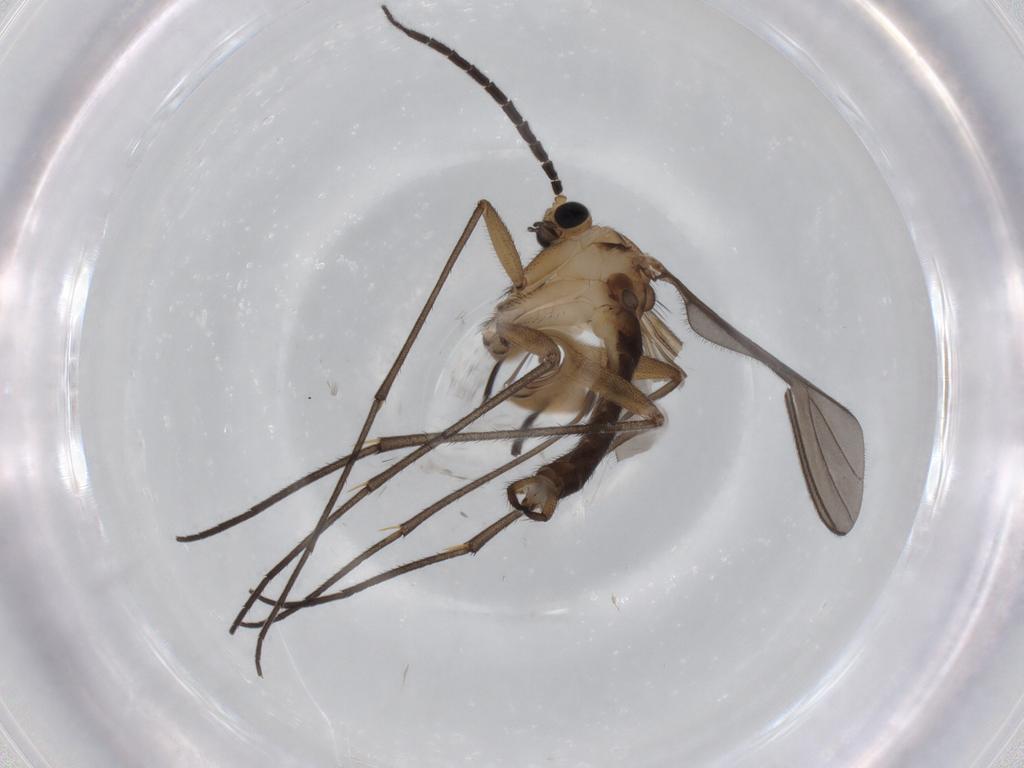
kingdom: Animalia
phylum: Arthropoda
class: Insecta
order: Diptera
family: Sciaridae
